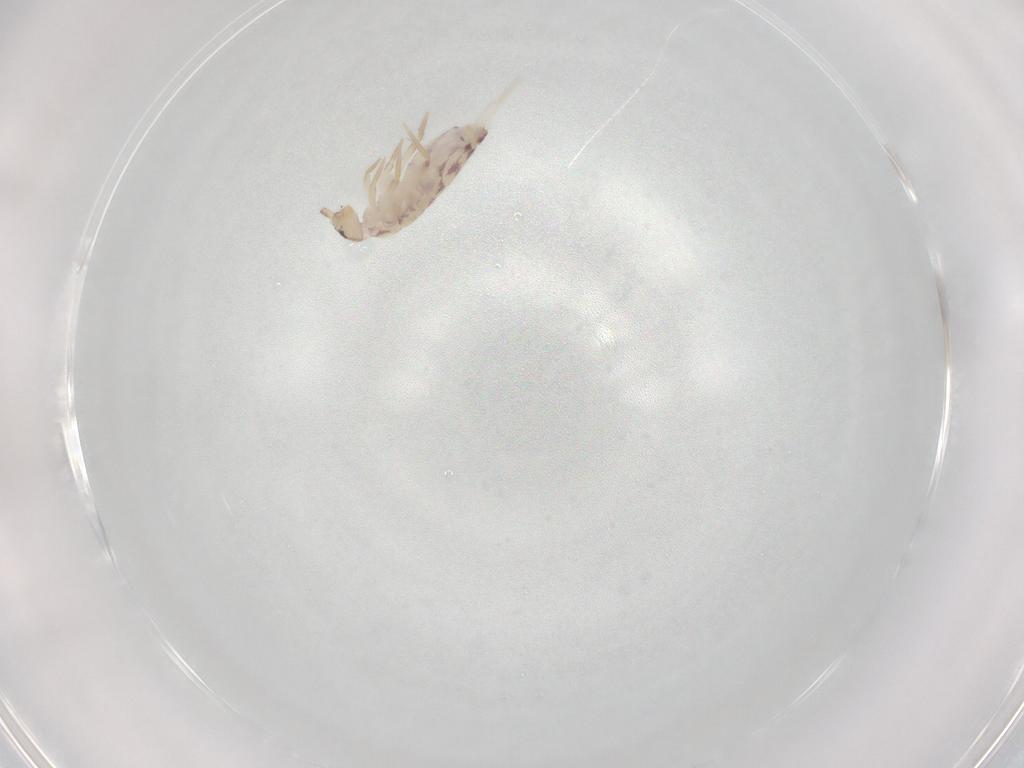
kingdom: Animalia
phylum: Arthropoda
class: Collembola
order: Entomobryomorpha
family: Entomobryidae
